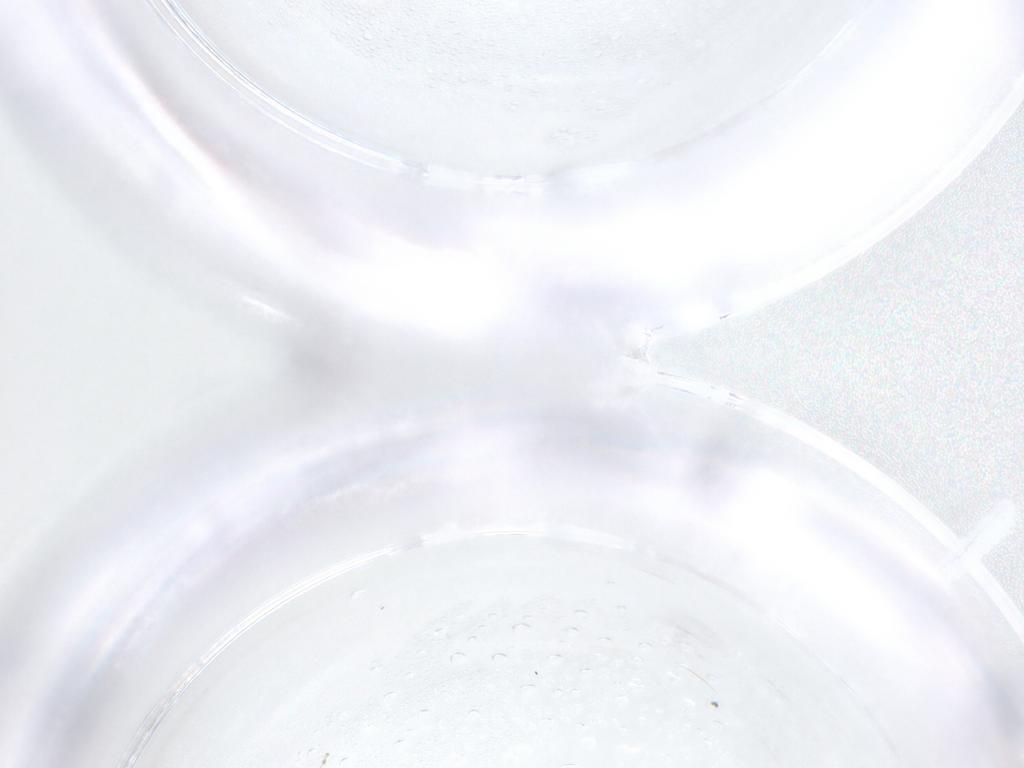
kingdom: Animalia
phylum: Arthropoda
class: Insecta
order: Diptera
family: Ceratopogonidae
